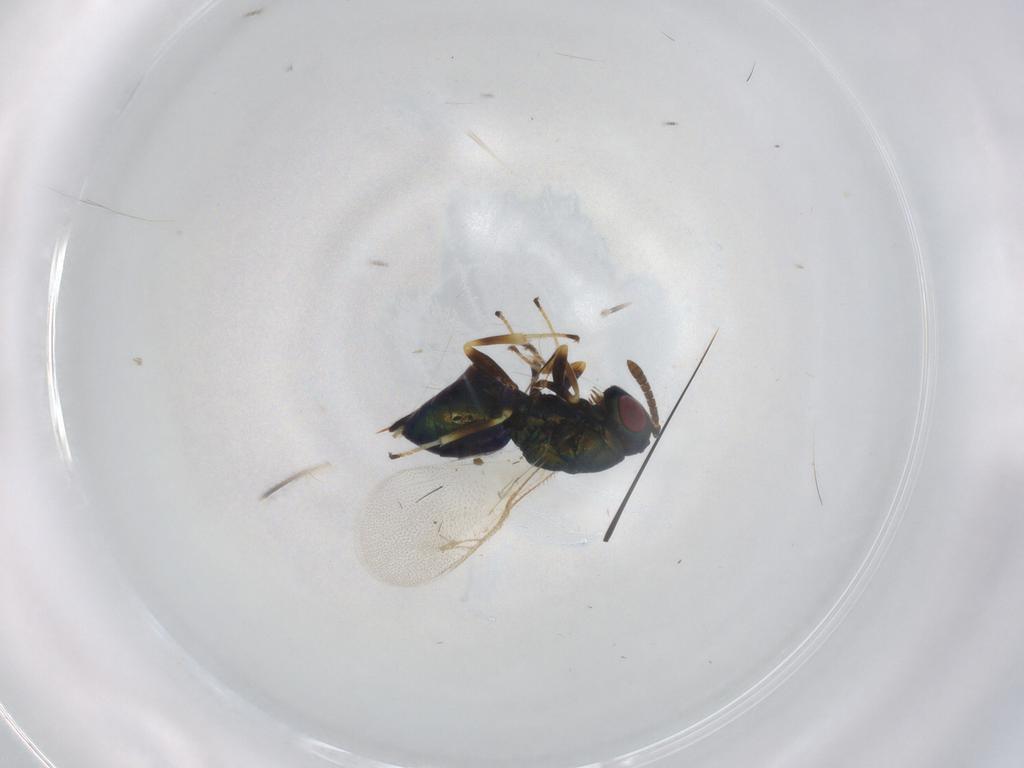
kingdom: Animalia
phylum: Arthropoda
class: Insecta
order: Hymenoptera
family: Pteromalidae
